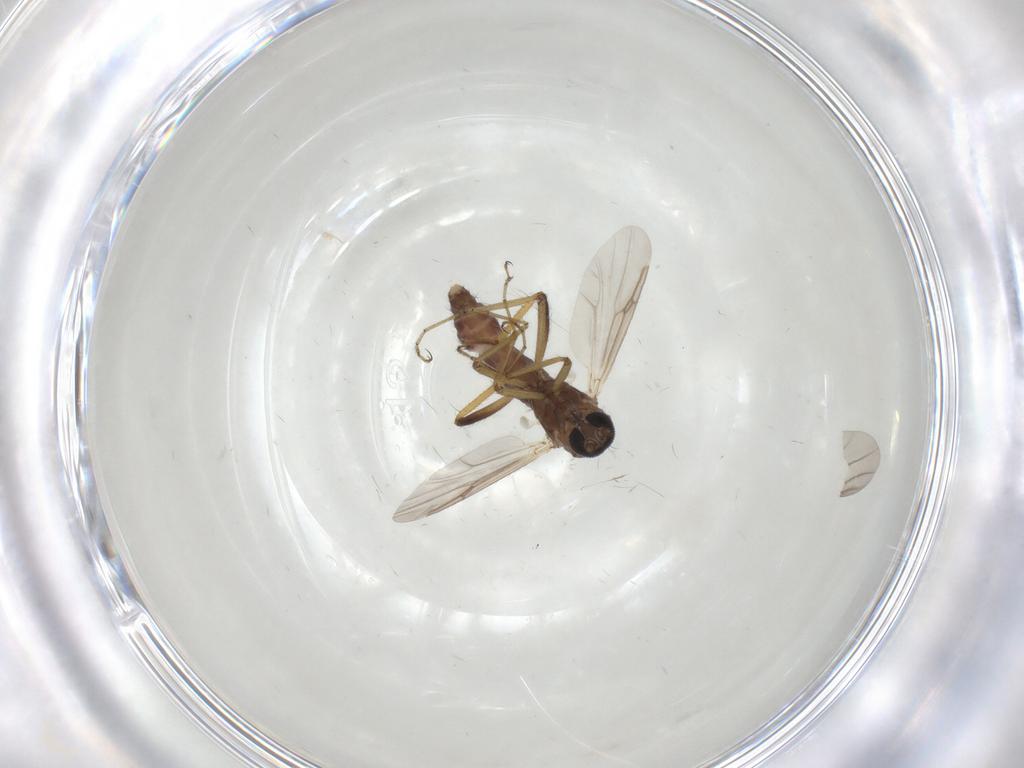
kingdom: Animalia
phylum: Arthropoda
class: Insecta
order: Diptera
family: Ceratopogonidae
